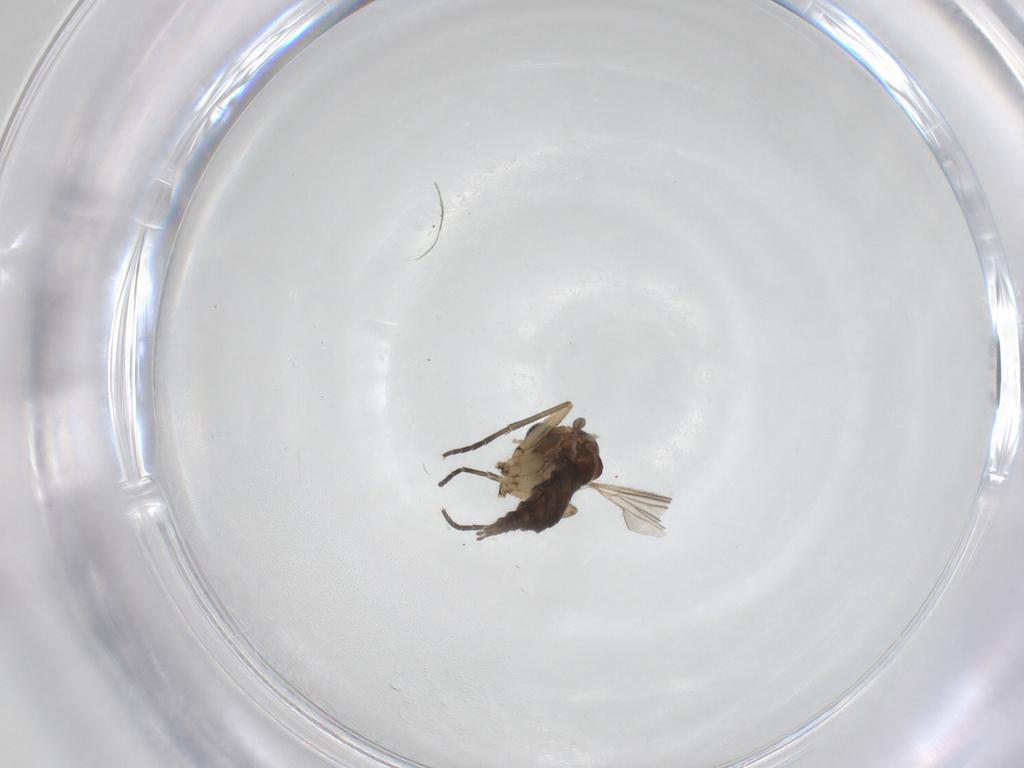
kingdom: Animalia
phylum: Arthropoda
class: Insecta
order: Diptera
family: Sciaridae
